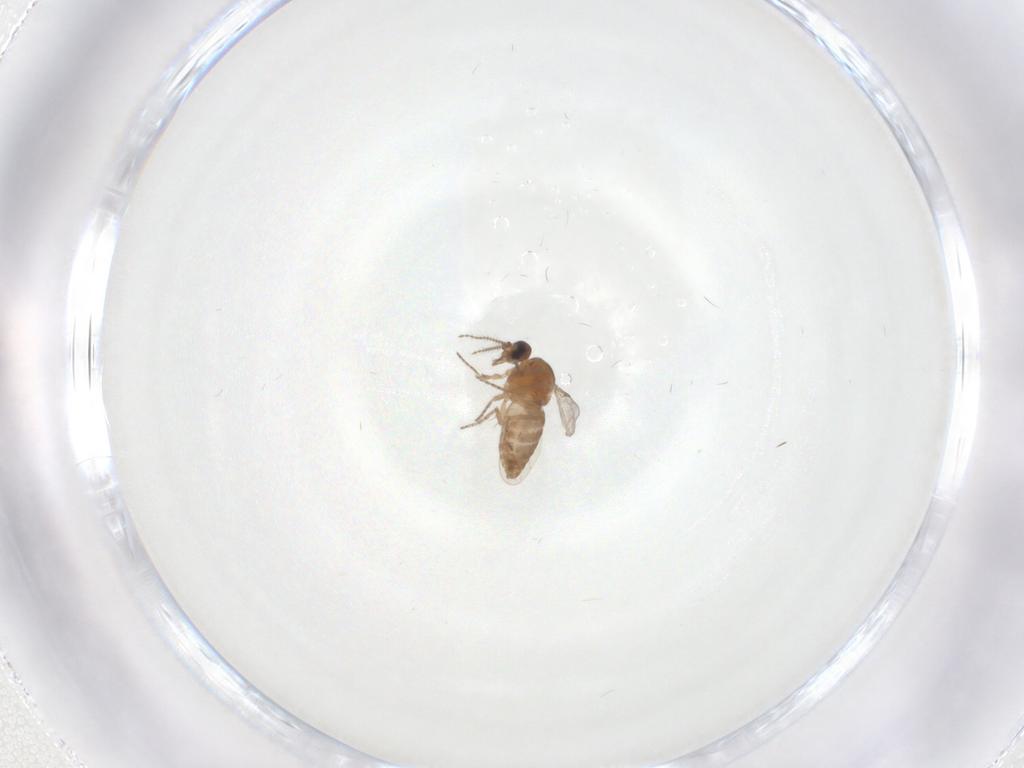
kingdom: Animalia
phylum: Arthropoda
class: Insecta
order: Diptera
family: Ceratopogonidae
